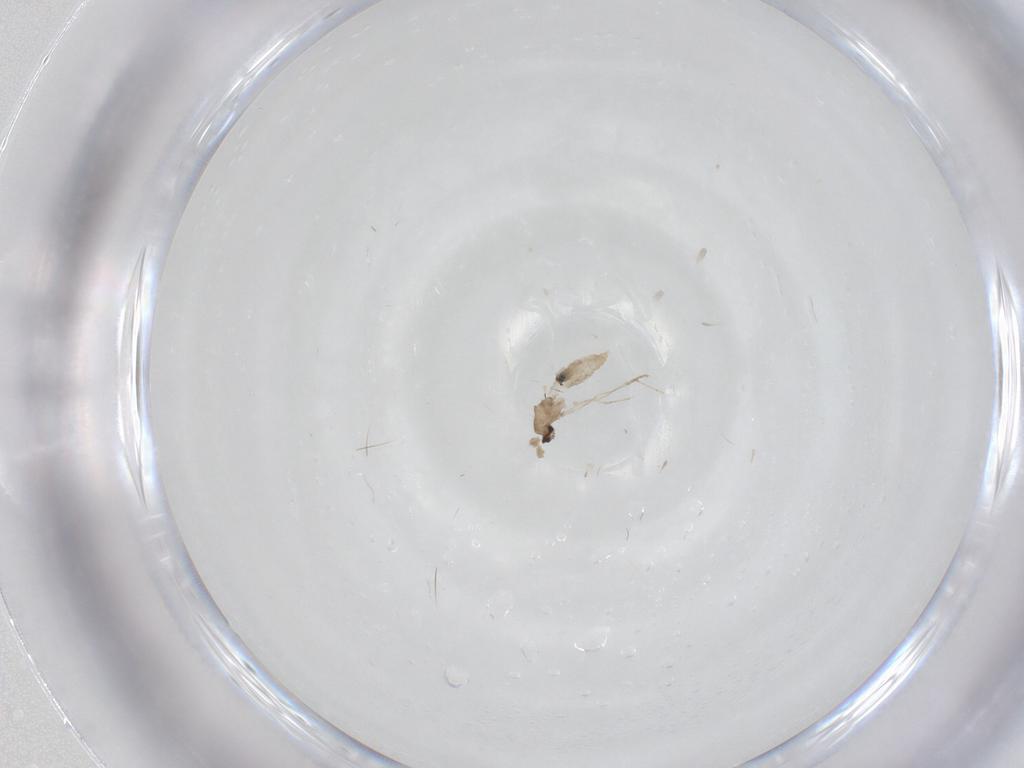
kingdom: Animalia
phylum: Arthropoda
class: Insecta
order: Diptera
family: Cecidomyiidae
